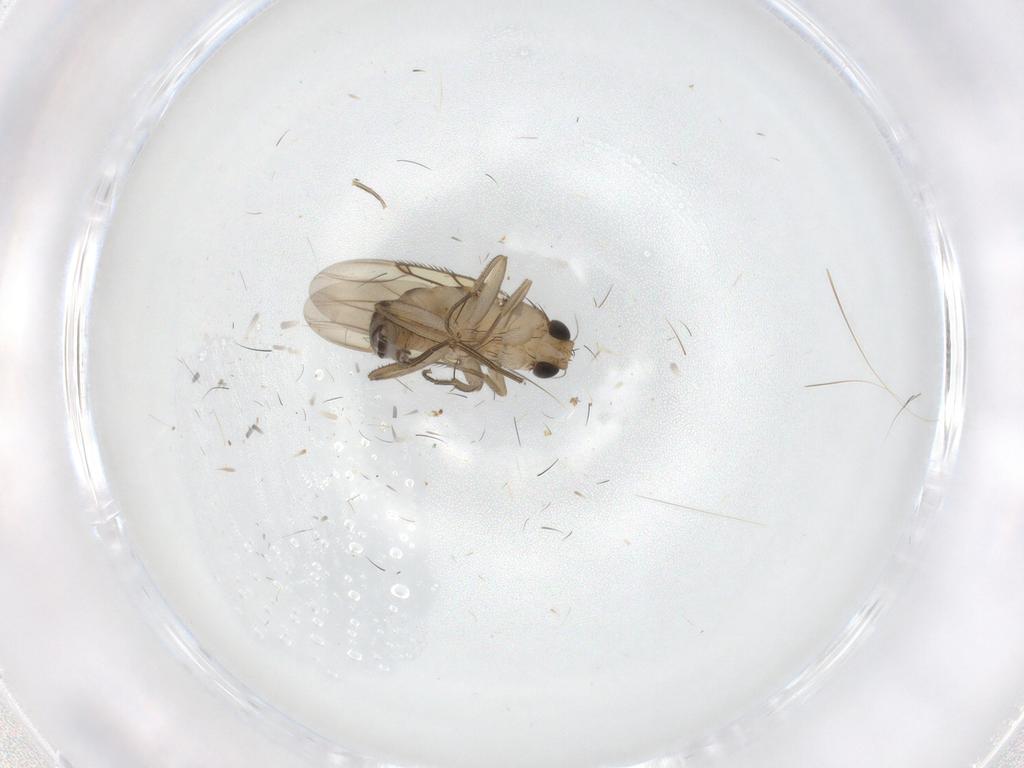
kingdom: Animalia
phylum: Arthropoda
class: Insecta
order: Diptera
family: Phoridae
